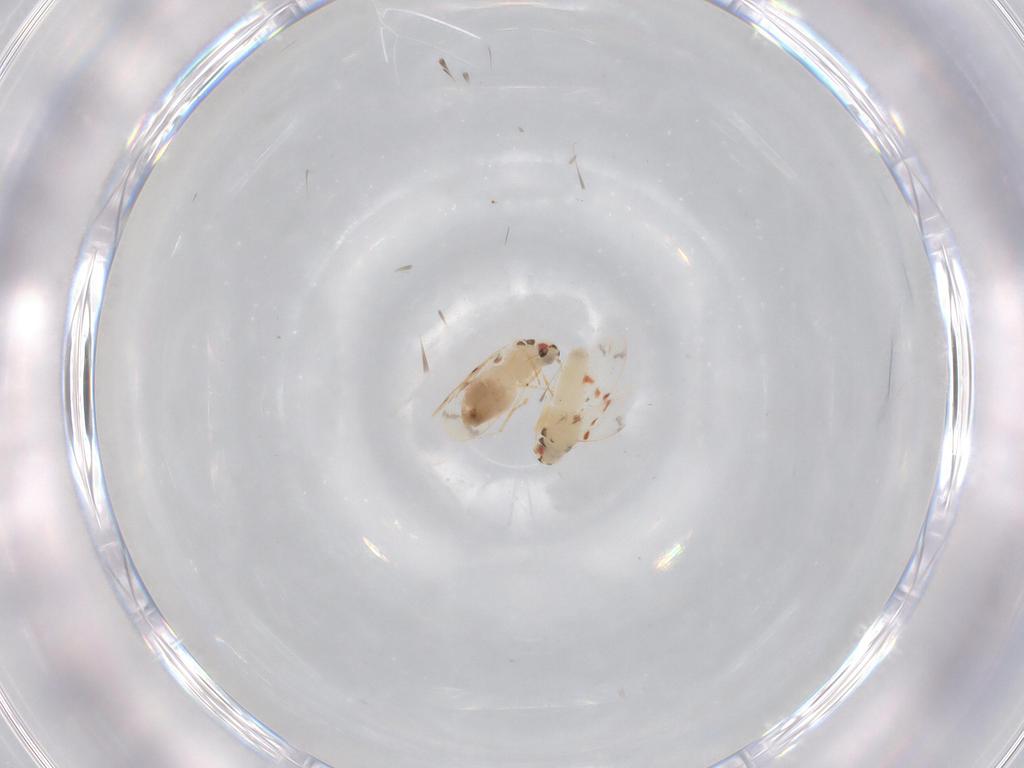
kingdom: Animalia
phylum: Arthropoda
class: Insecta
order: Hemiptera
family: Aleyrodidae
